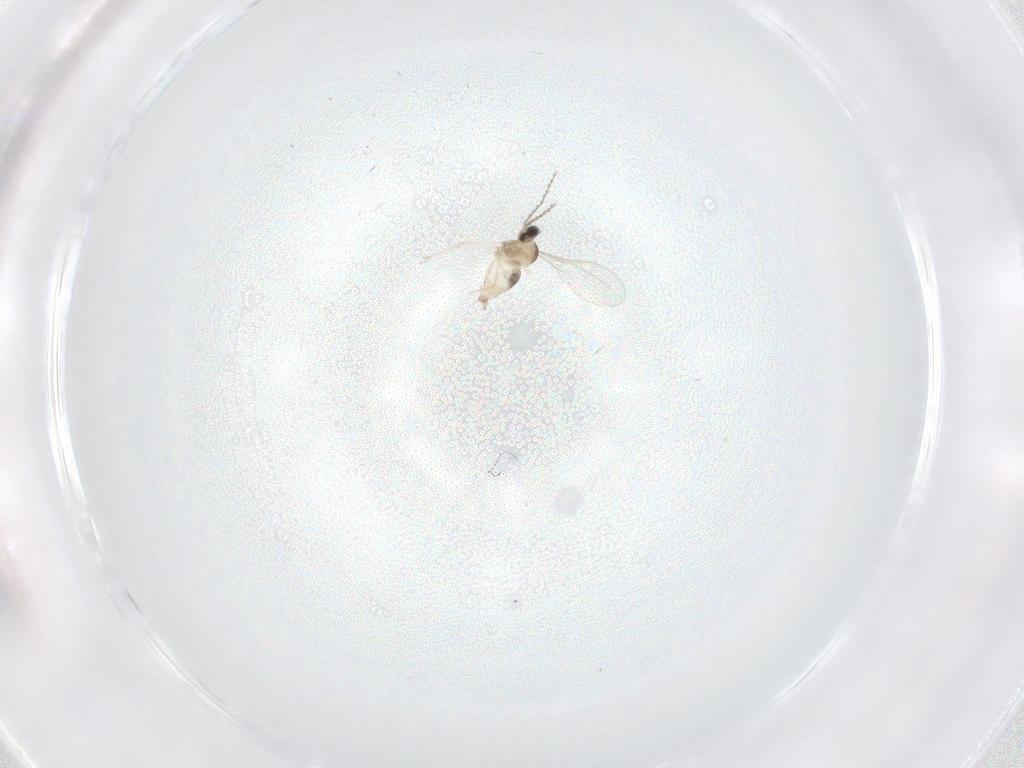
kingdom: Animalia
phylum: Arthropoda
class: Insecta
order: Diptera
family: Cecidomyiidae
